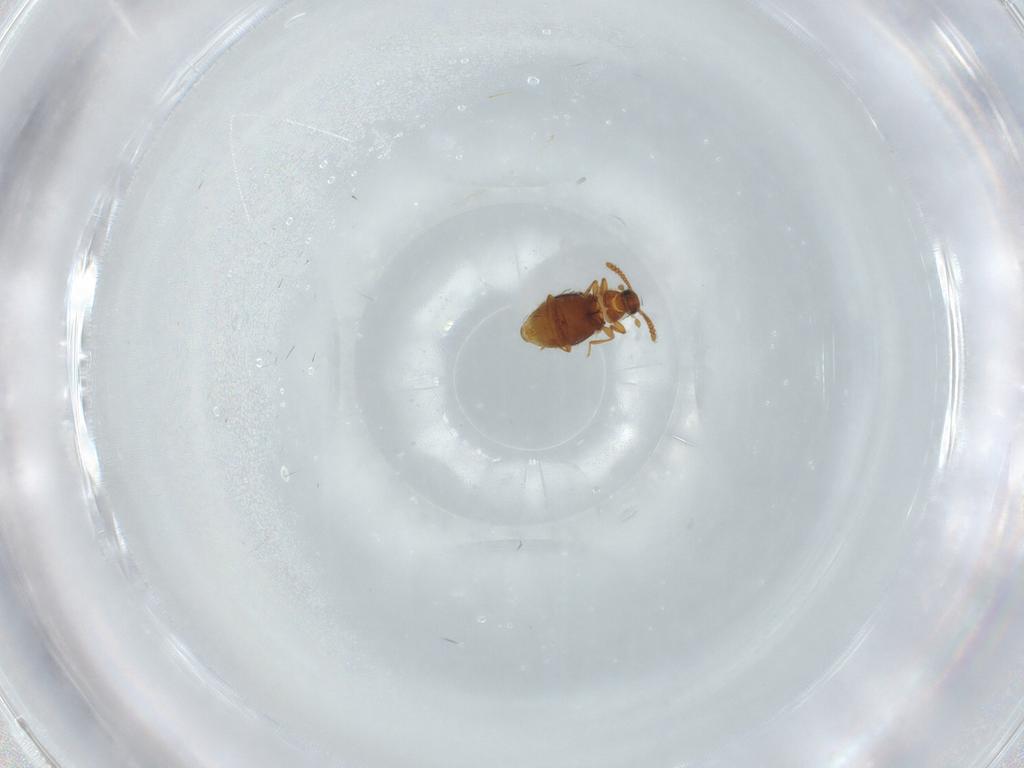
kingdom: Animalia
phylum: Arthropoda
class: Insecta
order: Coleoptera
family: Staphylinidae
